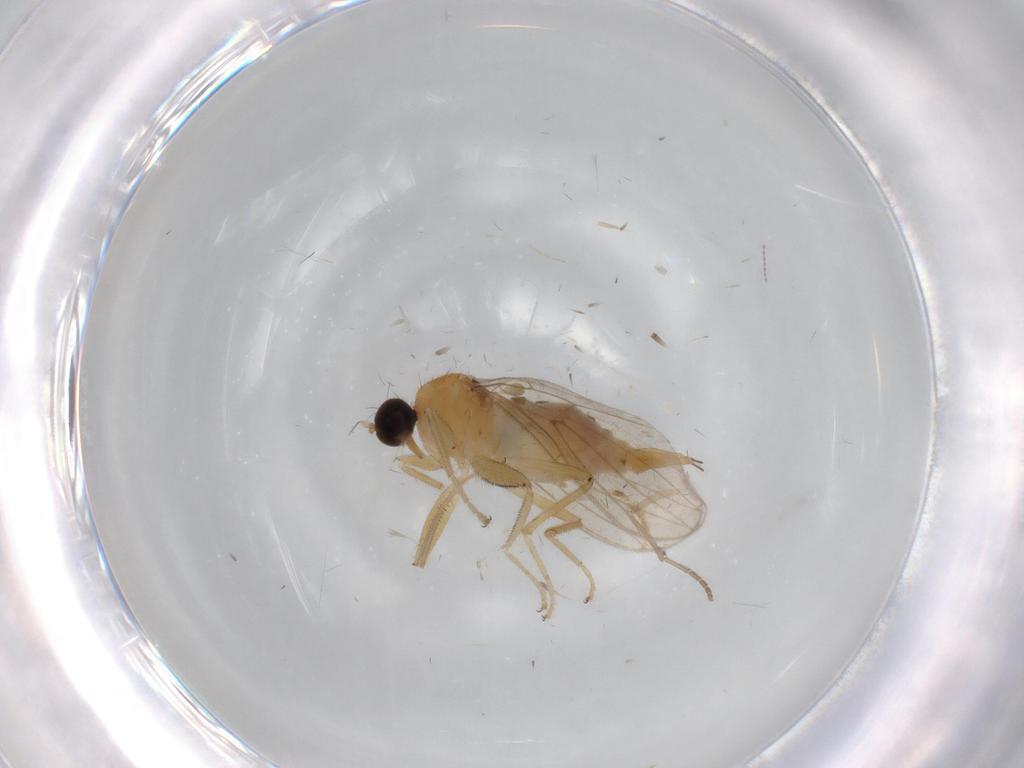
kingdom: Animalia
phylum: Arthropoda
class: Insecta
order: Diptera
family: Hybotidae
